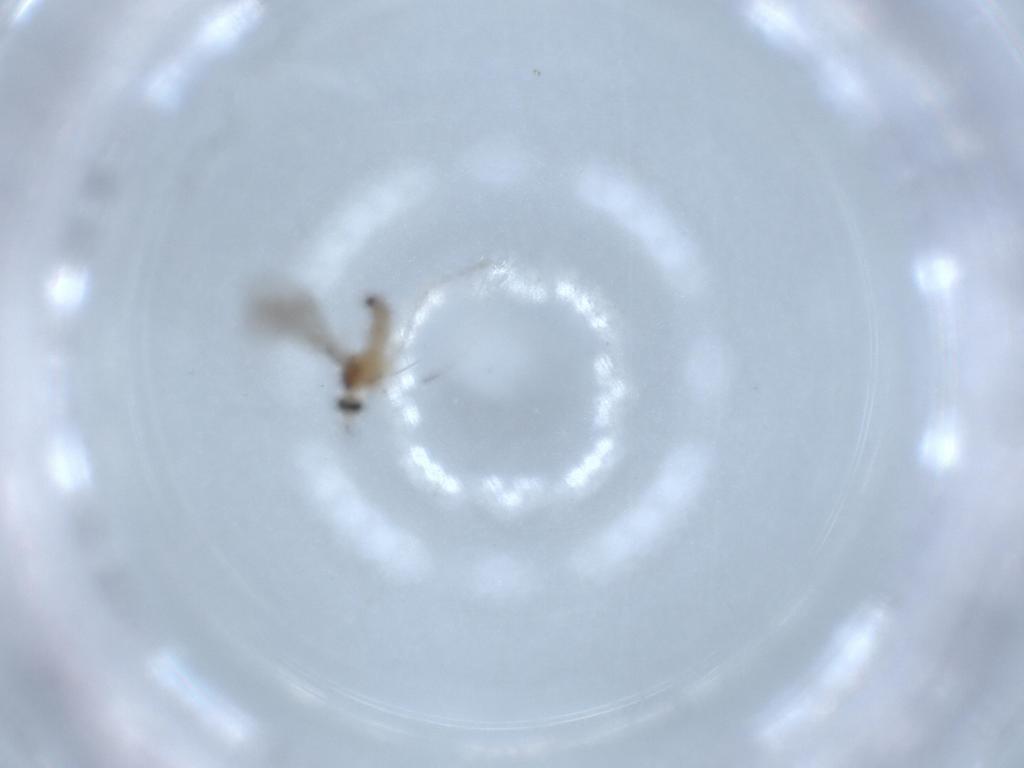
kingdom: Animalia
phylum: Arthropoda
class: Insecta
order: Diptera
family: Cecidomyiidae
